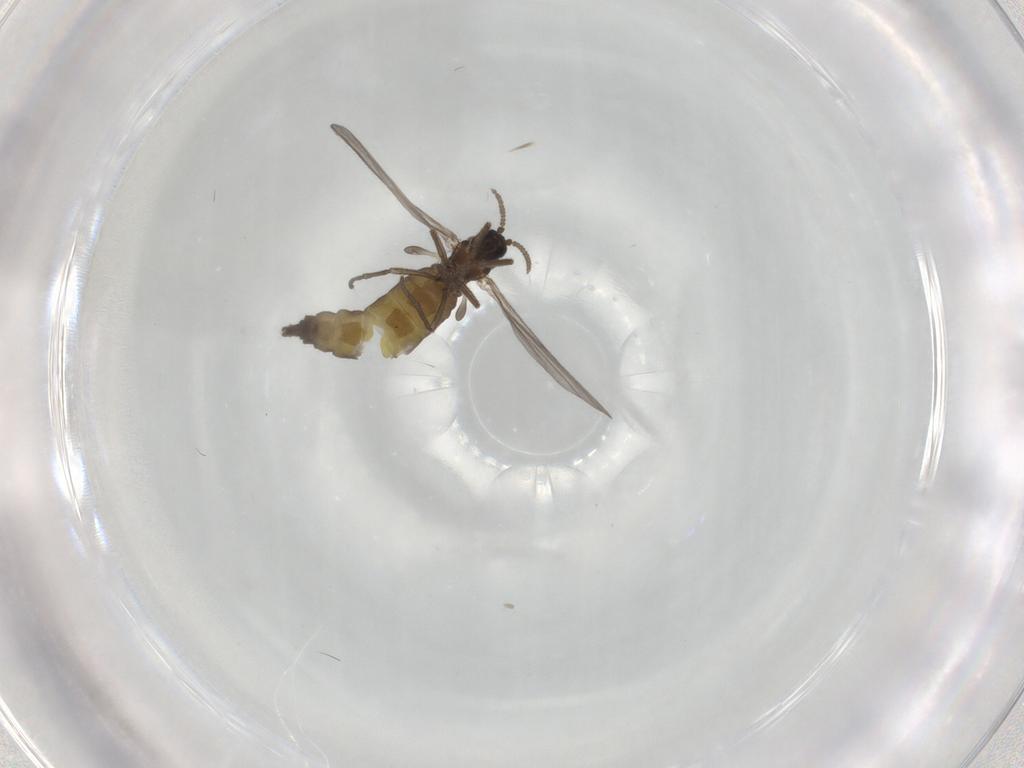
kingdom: Animalia
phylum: Arthropoda
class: Insecta
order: Diptera
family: Sciaridae
